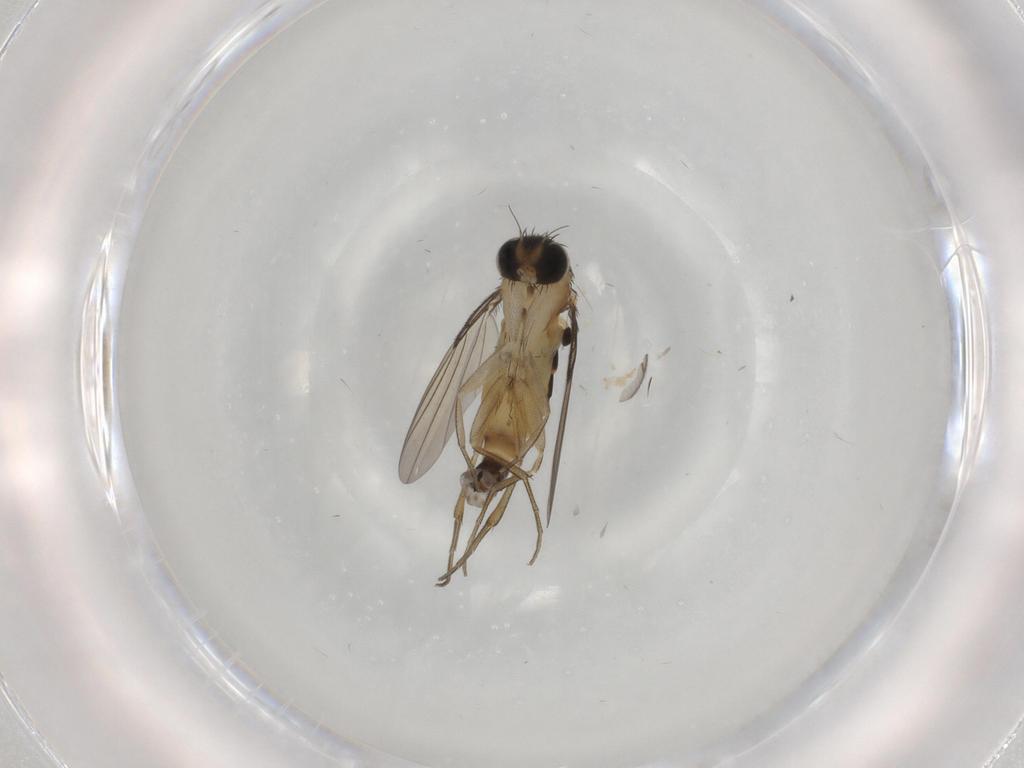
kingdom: Animalia
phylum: Arthropoda
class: Insecta
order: Diptera
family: Phoridae
